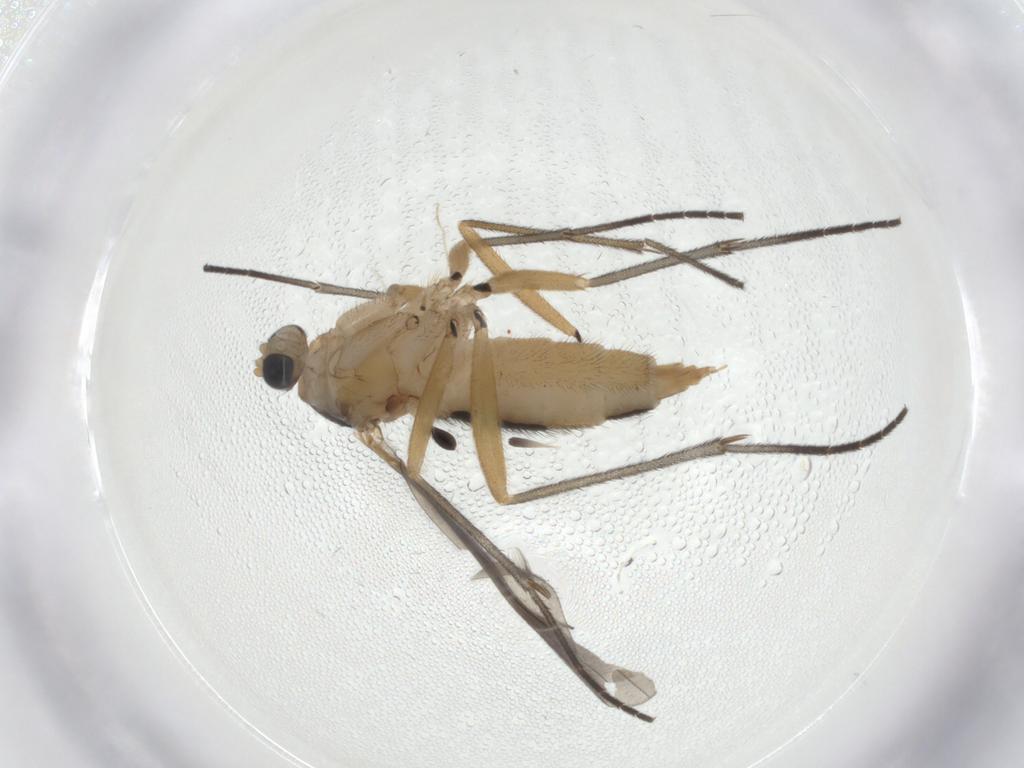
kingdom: Animalia
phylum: Arthropoda
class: Insecta
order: Diptera
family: Sciaridae
